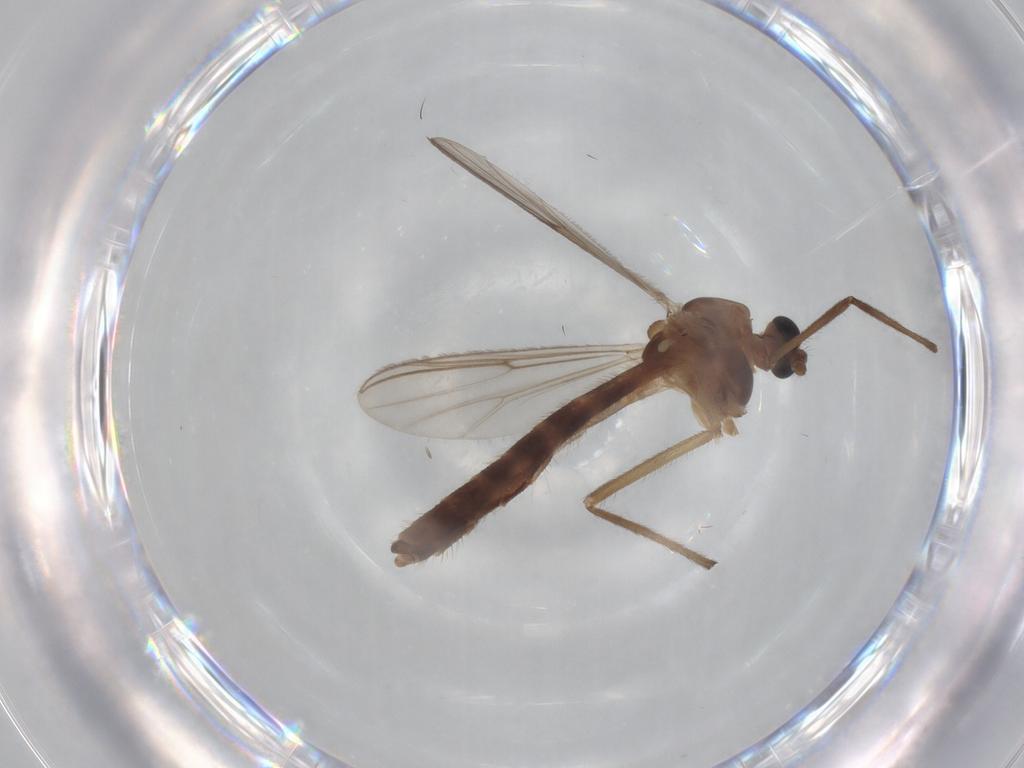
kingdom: Animalia
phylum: Arthropoda
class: Insecta
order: Diptera
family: Chironomidae
